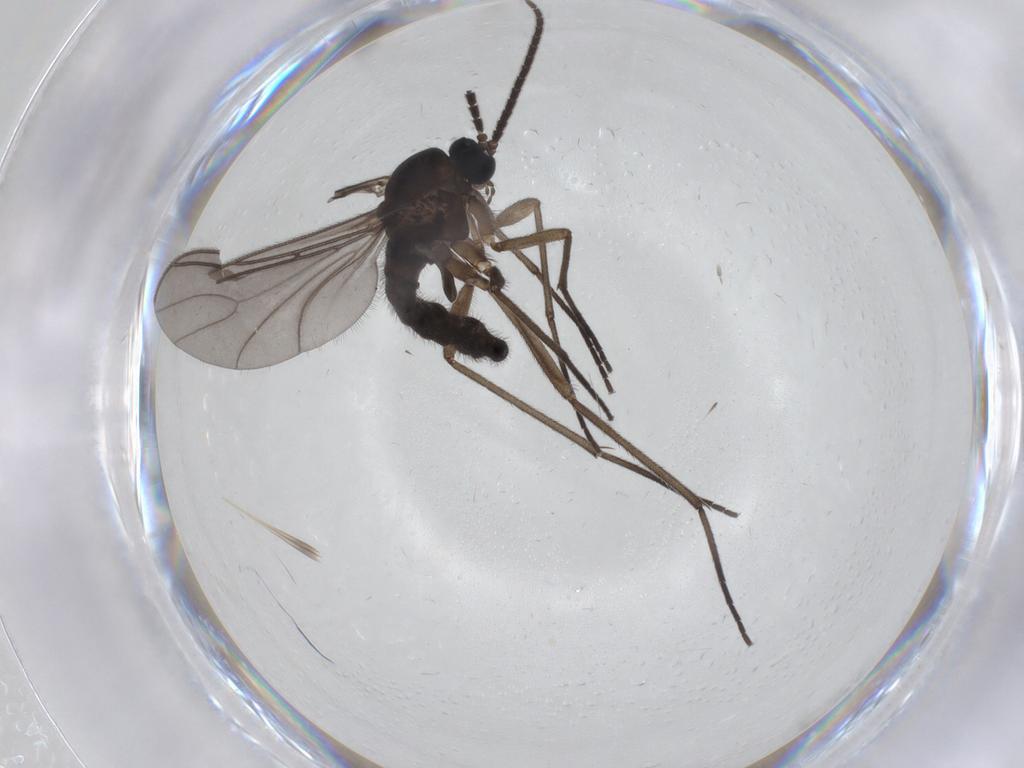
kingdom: Animalia
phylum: Arthropoda
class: Insecta
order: Diptera
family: Sciaridae
